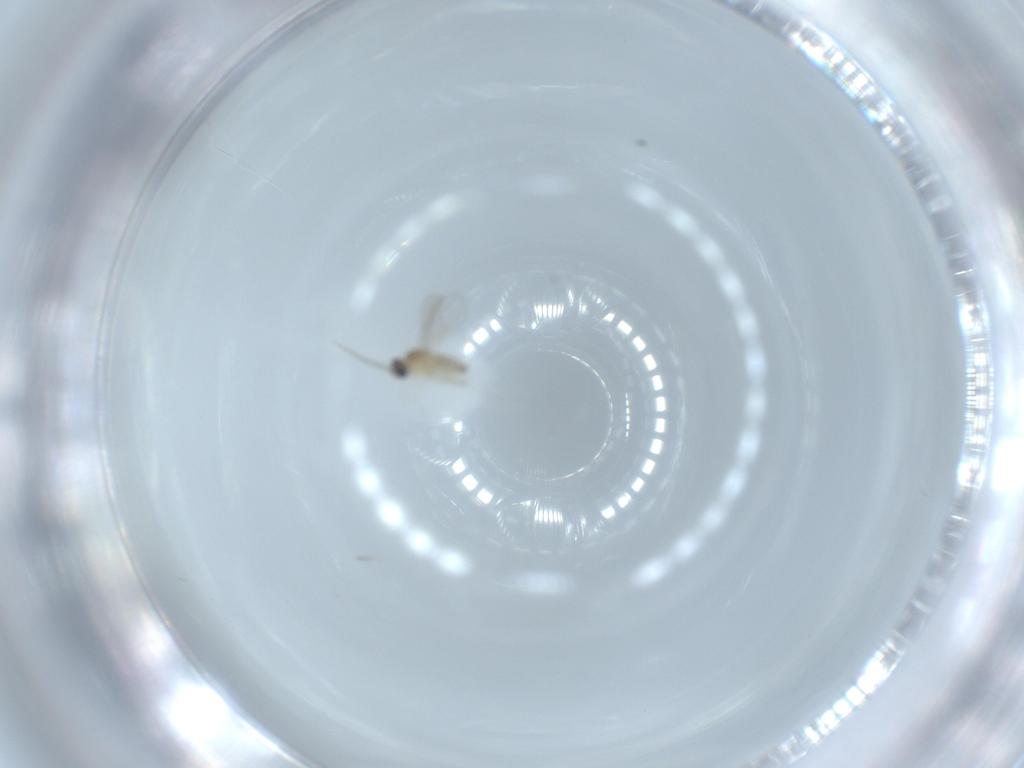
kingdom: Animalia
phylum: Arthropoda
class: Insecta
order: Diptera
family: Cecidomyiidae
